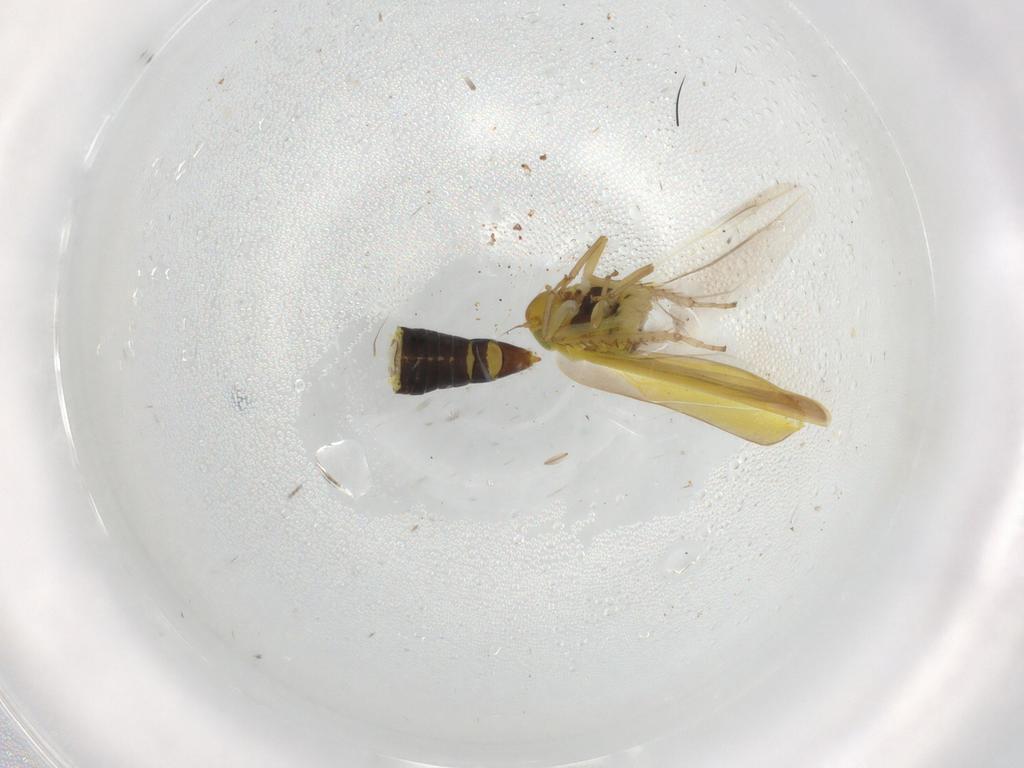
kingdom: Animalia
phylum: Arthropoda
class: Insecta
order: Hemiptera
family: Cicadellidae
